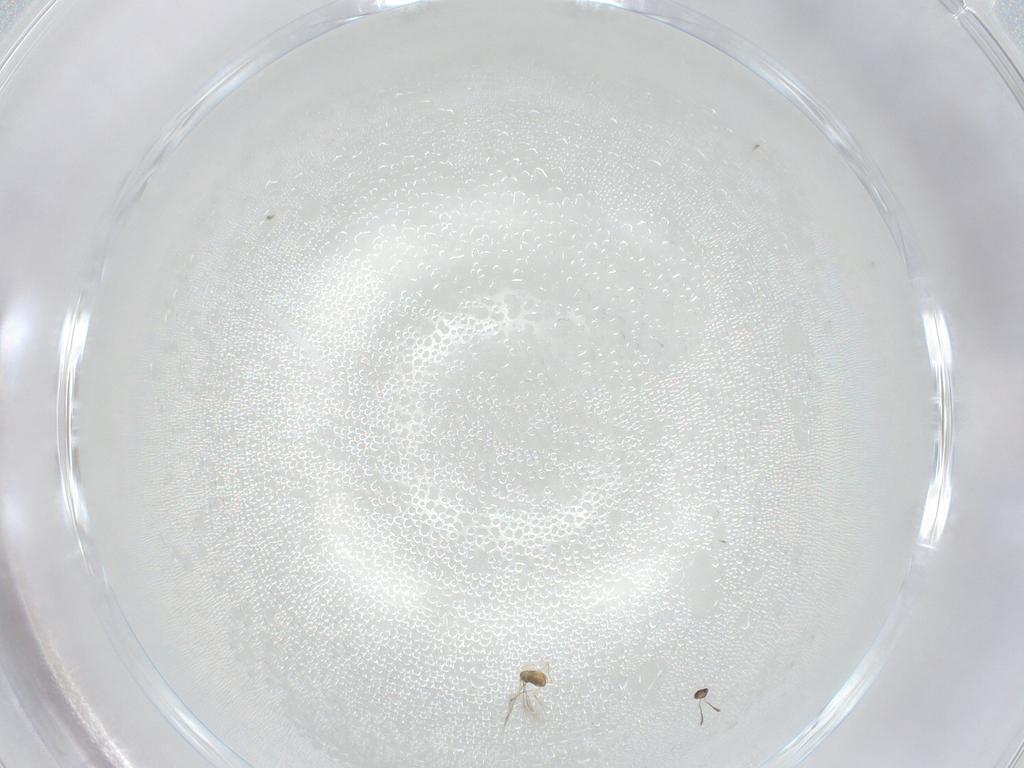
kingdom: Animalia
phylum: Arthropoda
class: Insecta
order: Hymenoptera
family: Mymaridae
